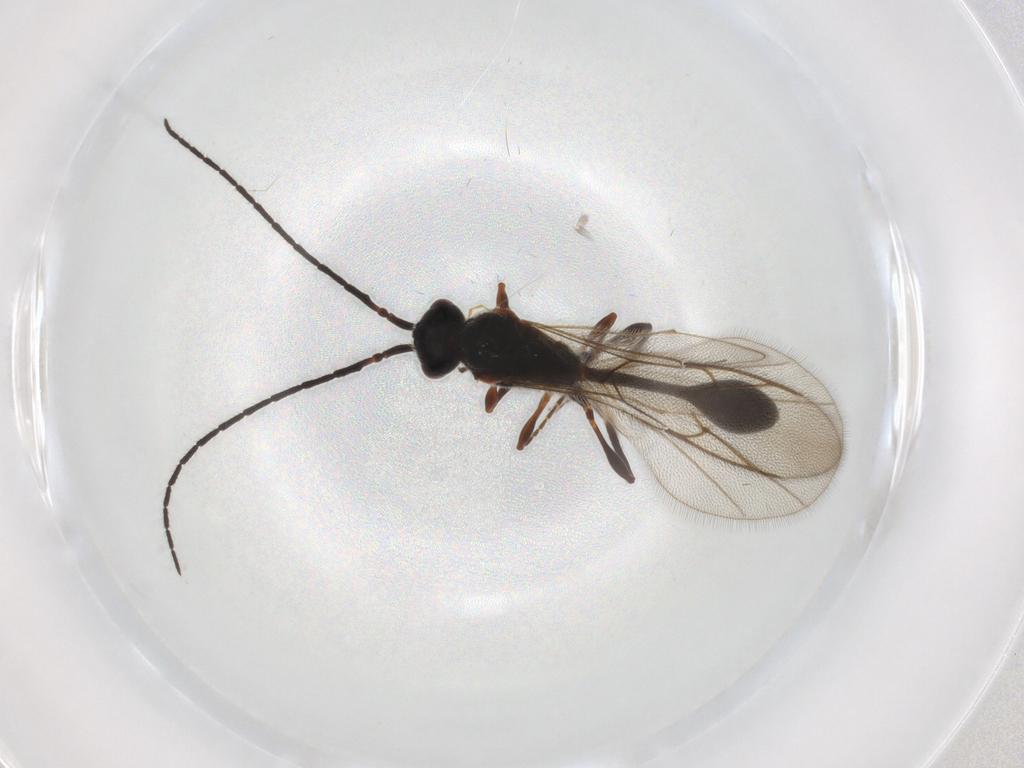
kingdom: Animalia
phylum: Arthropoda
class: Insecta
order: Hymenoptera
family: Diapriidae
